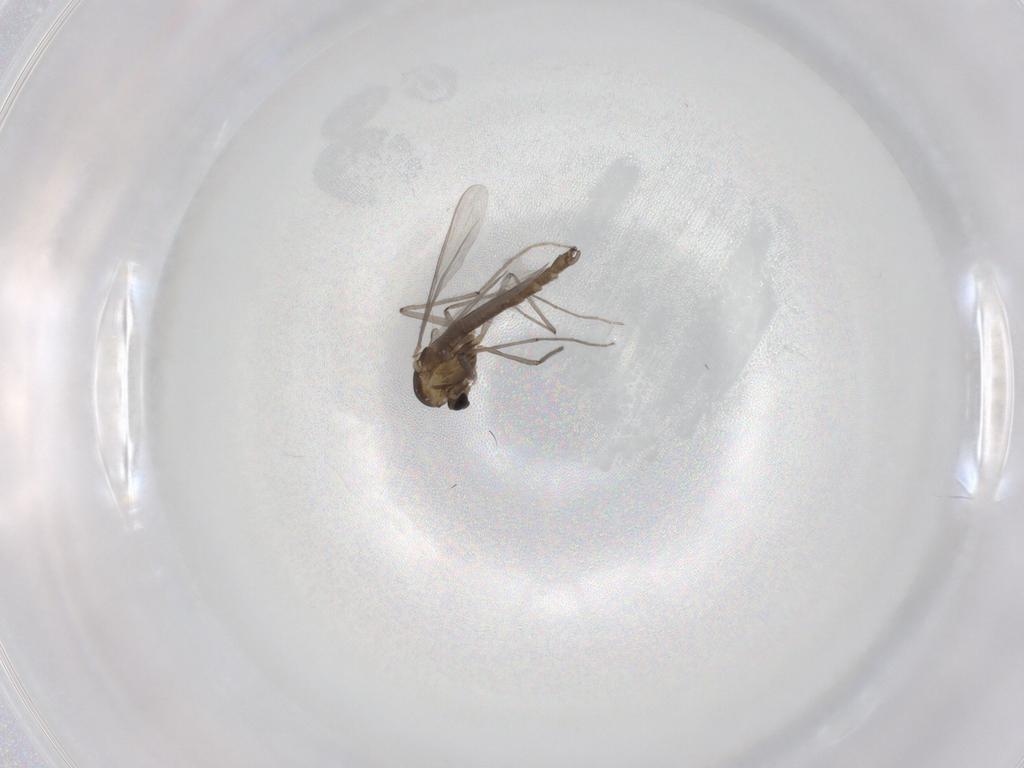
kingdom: Animalia
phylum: Arthropoda
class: Insecta
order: Diptera
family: Chironomidae
